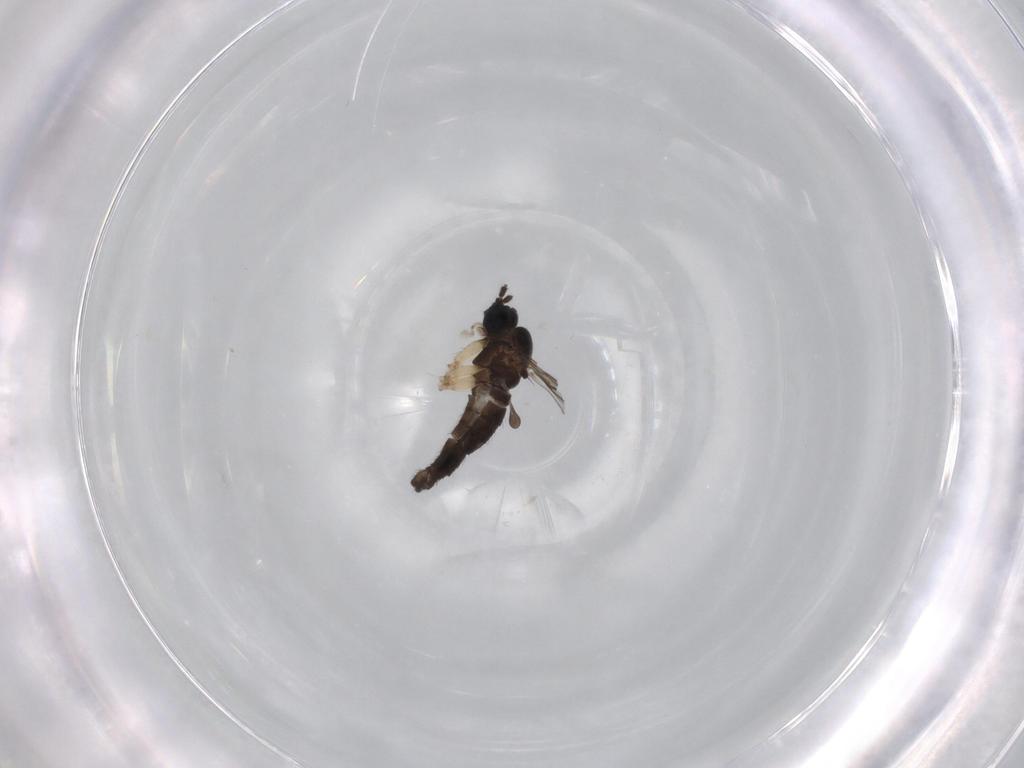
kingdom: Animalia
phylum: Arthropoda
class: Insecta
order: Diptera
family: Sciaridae
